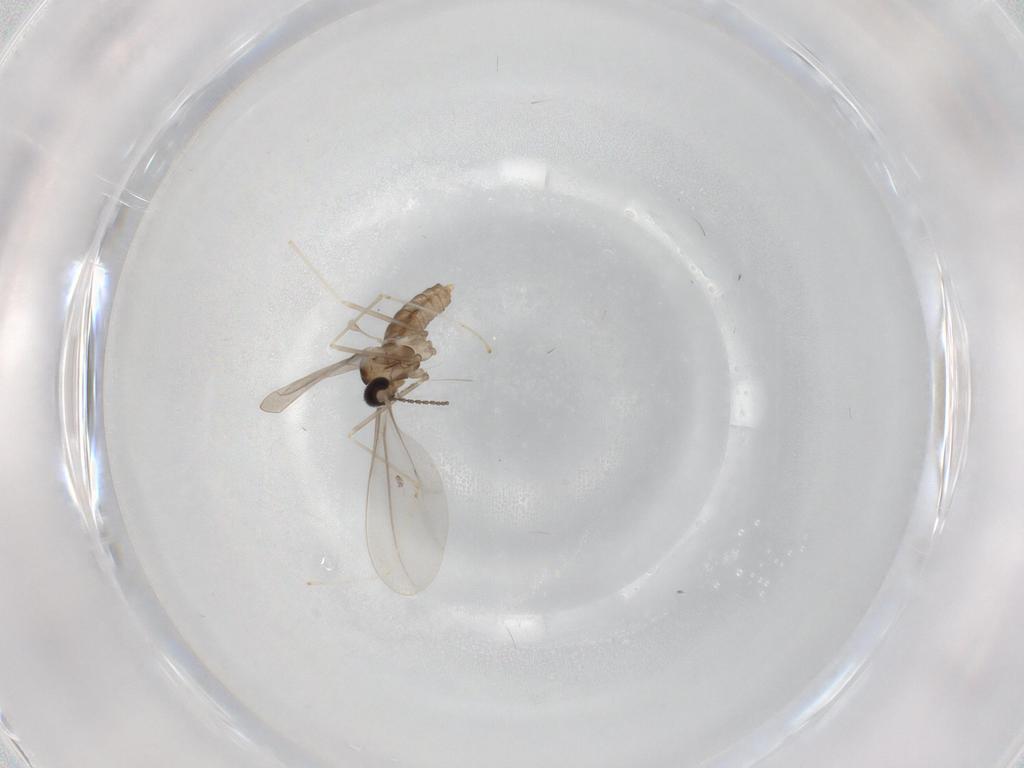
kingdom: Animalia
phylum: Arthropoda
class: Insecta
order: Diptera
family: Cecidomyiidae
